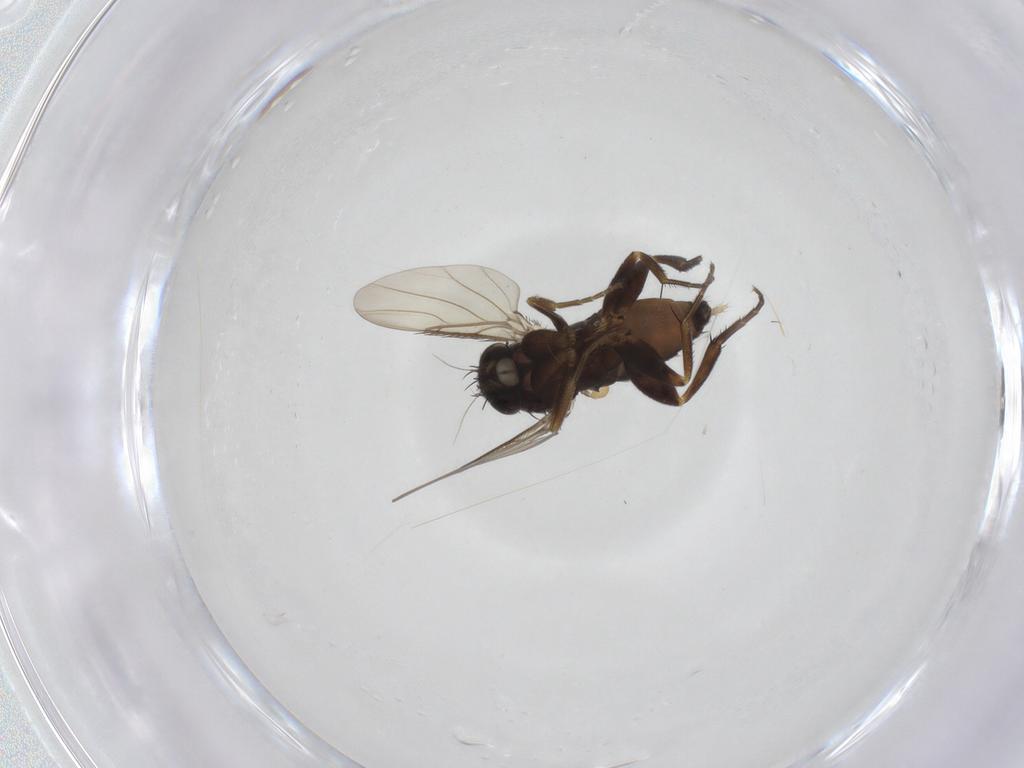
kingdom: Animalia
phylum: Arthropoda
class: Insecta
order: Diptera
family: Phoridae
